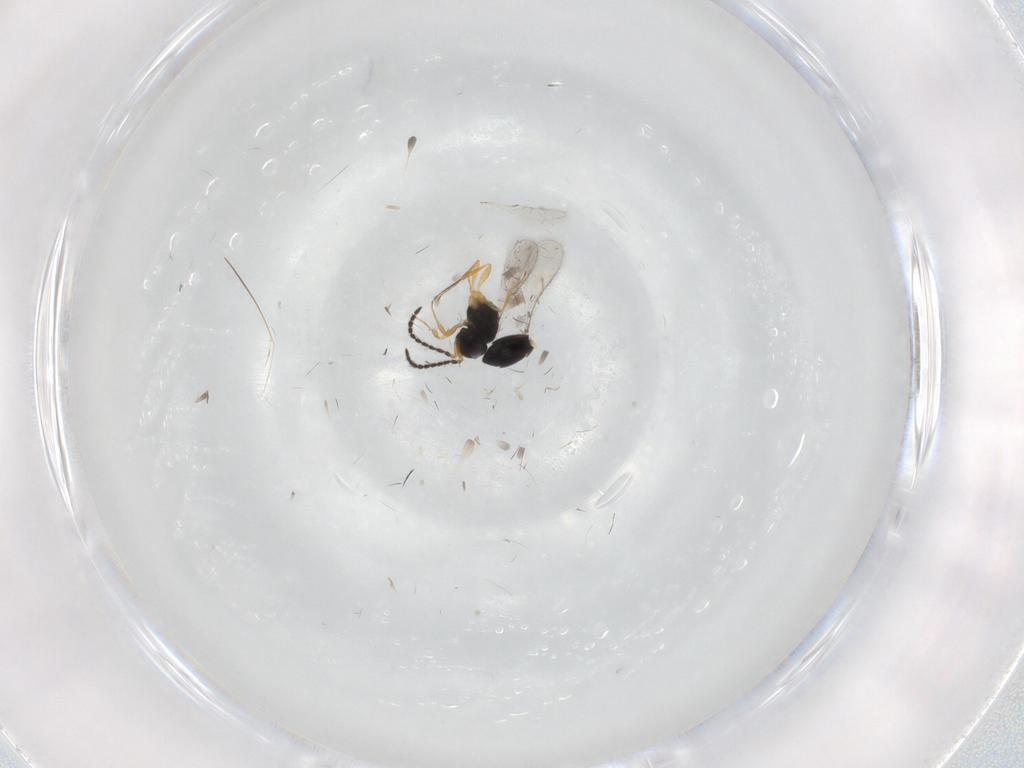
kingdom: Animalia
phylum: Arthropoda
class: Insecta
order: Hymenoptera
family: Scelionidae
